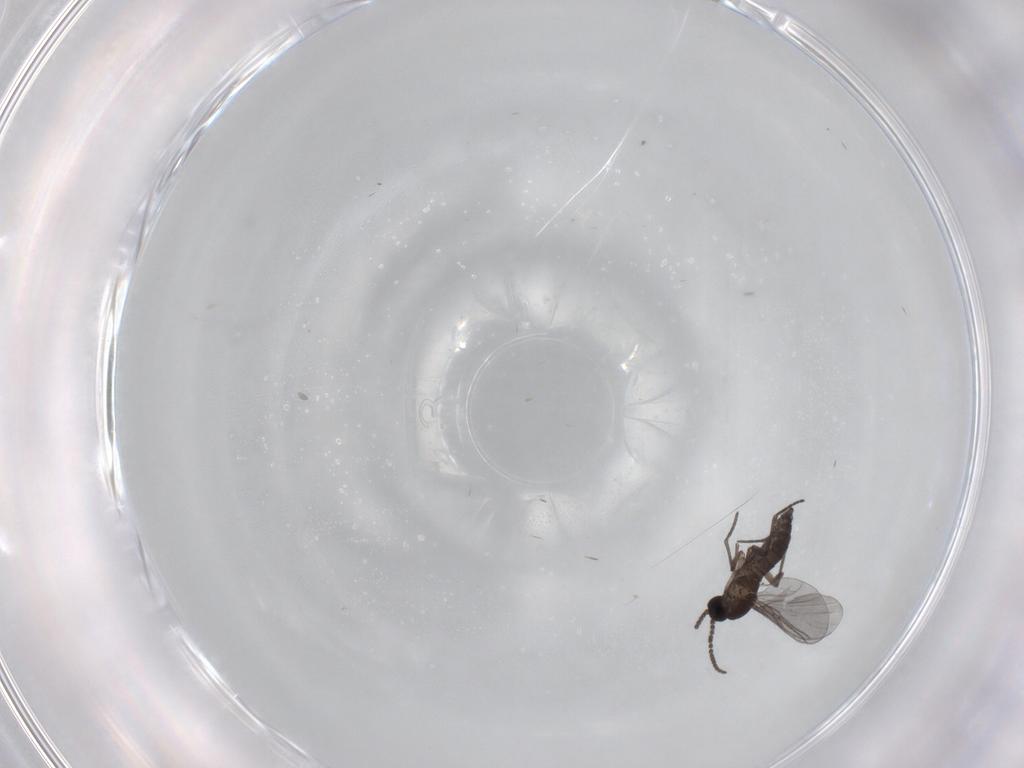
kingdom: Animalia
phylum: Arthropoda
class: Insecta
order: Diptera
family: Sciaridae
